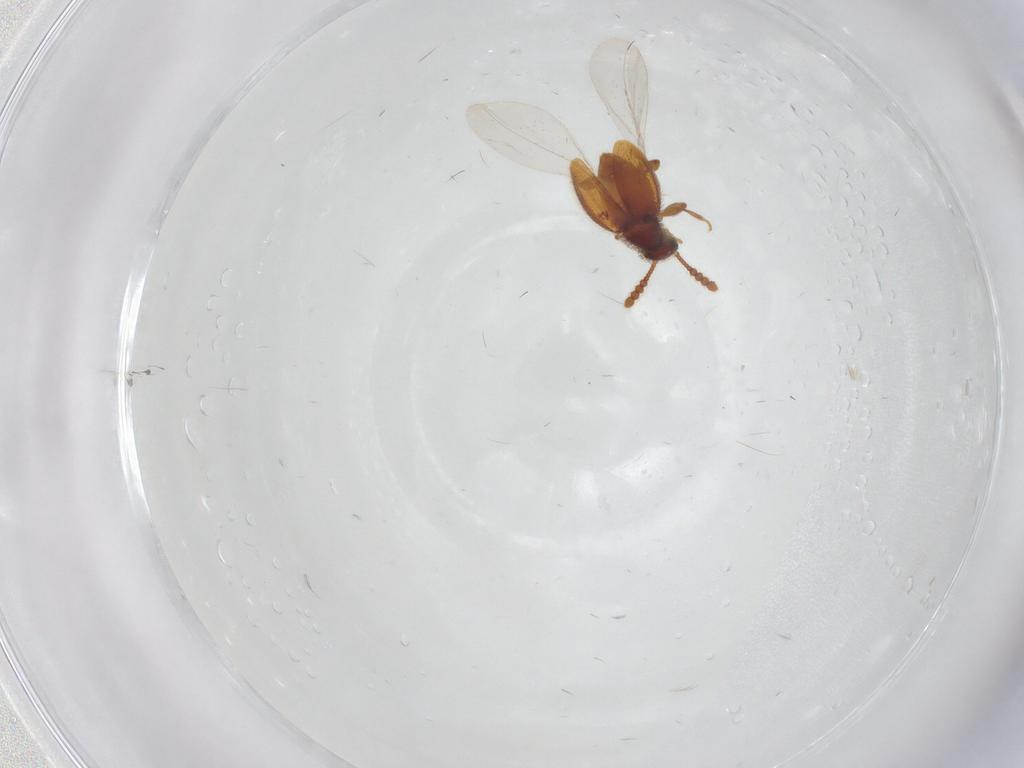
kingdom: Animalia
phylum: Arthropoda
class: Insecta
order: Coleoptera
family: Staphylinidae
